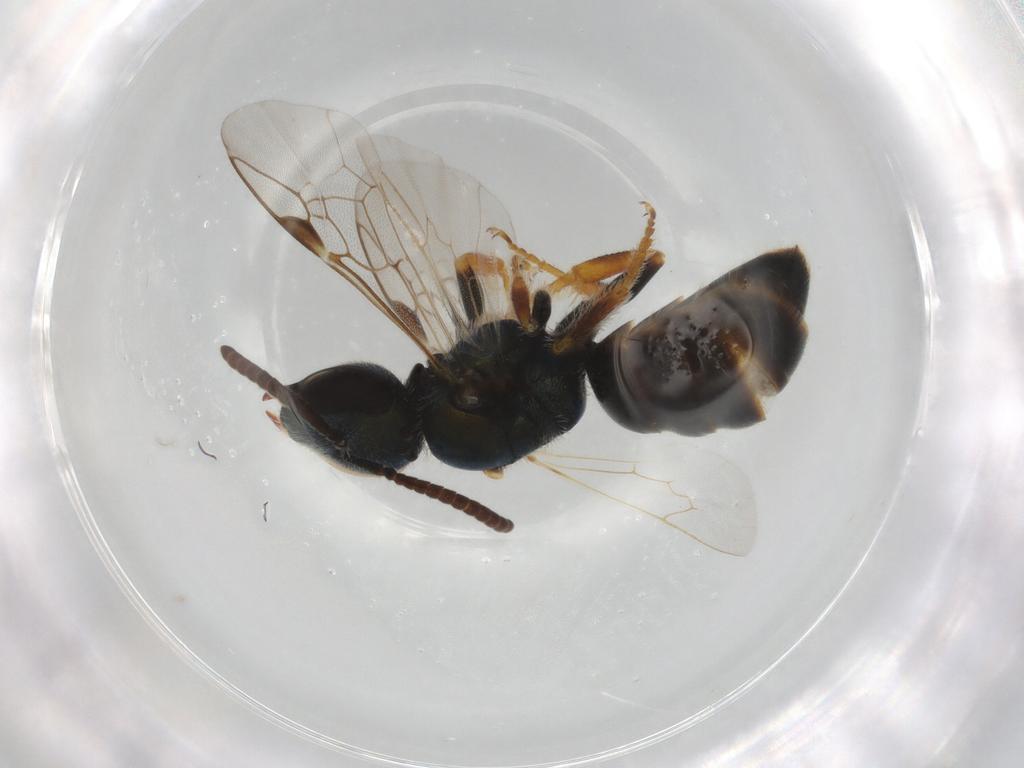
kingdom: Animalia
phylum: Arthropoda
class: Insecta
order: Hymenoptera
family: Halictidae
